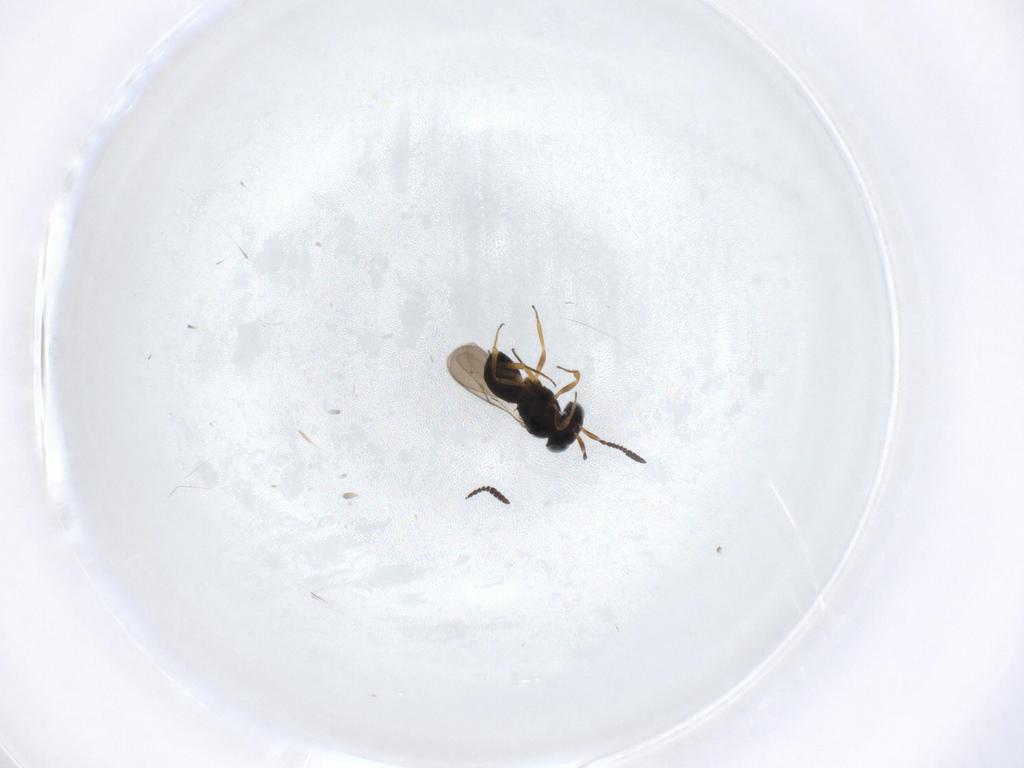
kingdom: Animalia
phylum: Arthropoda
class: Insecta
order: Hymenoptera
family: Scelionidae
